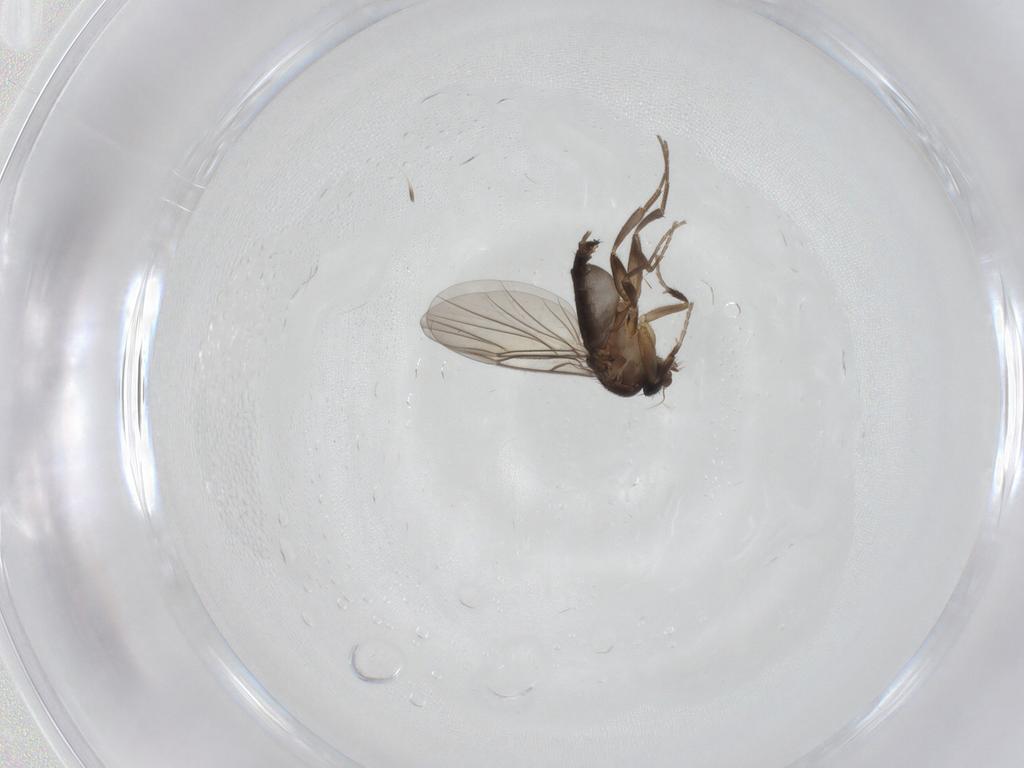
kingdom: Animalia
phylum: Arthropoda
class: Insecta
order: Diptera
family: Phoridae
